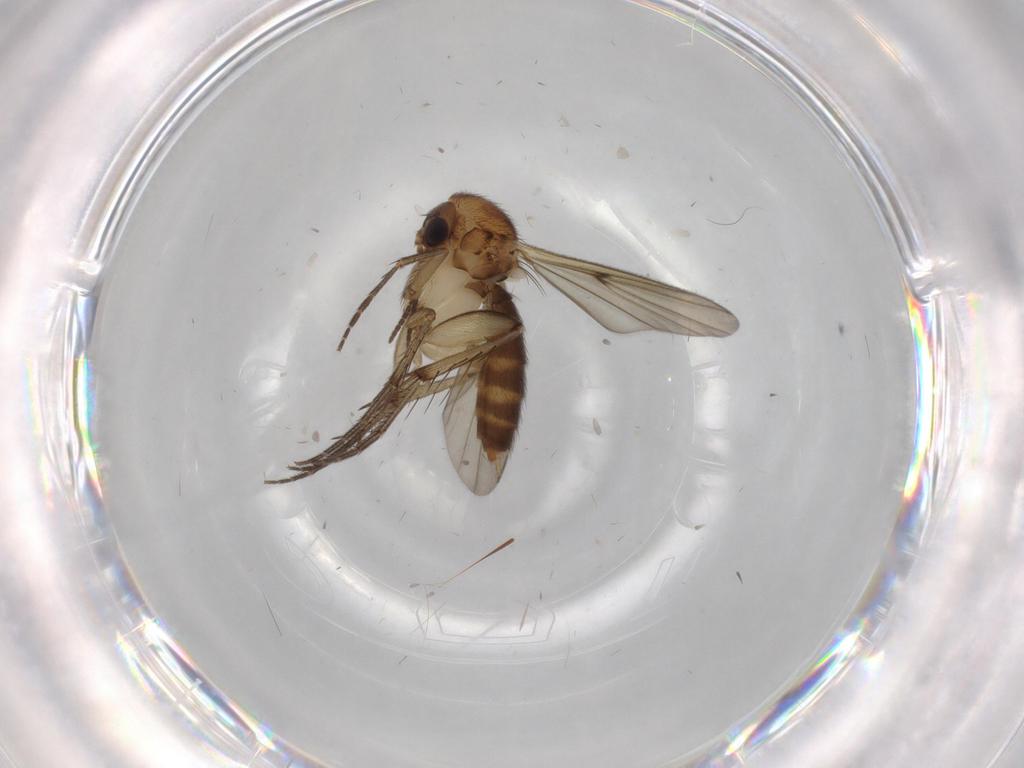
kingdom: Animalia
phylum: Arthropoda
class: Insecta
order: Diptera
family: Mycetophilidae
